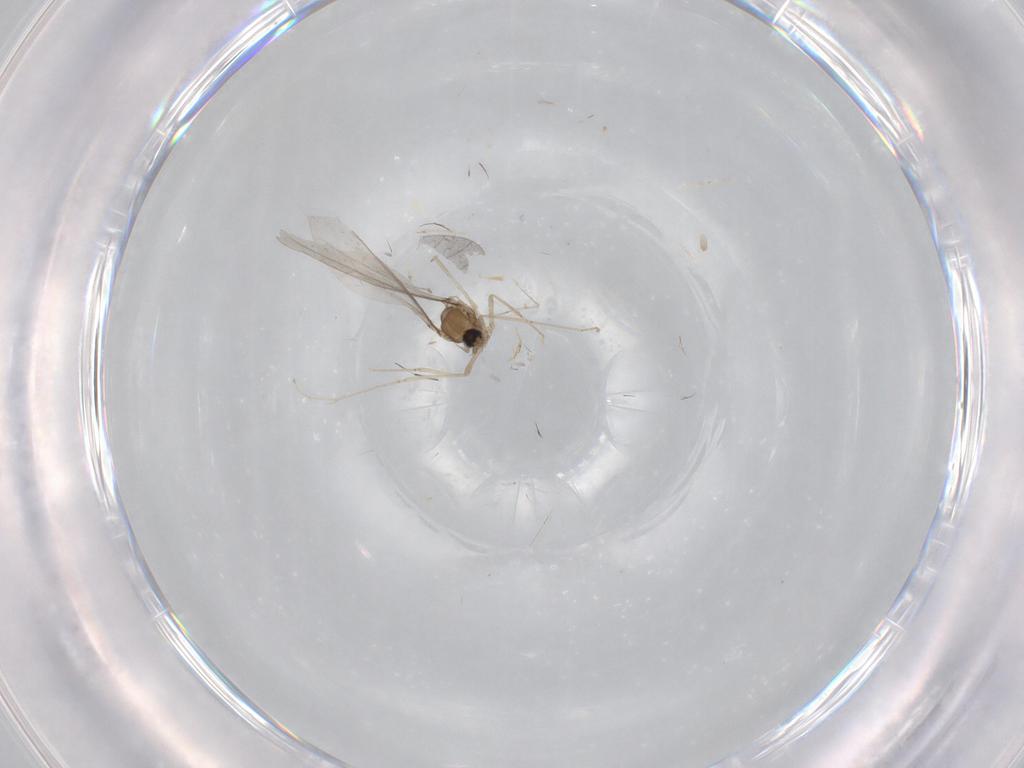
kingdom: Animalia
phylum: Arthropoda
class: Insecta
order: Diptera
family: Cecidomyiidae
